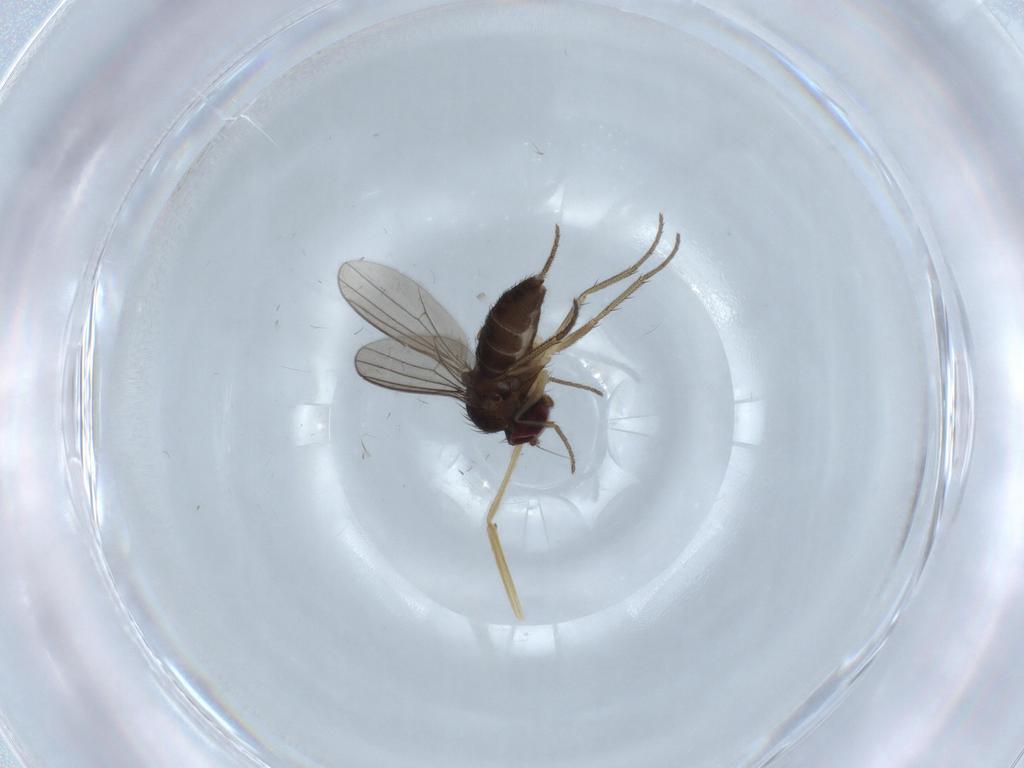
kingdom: Animalia
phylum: Arthropoda
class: Insecta
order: Diptera
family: Dolichopodidae
